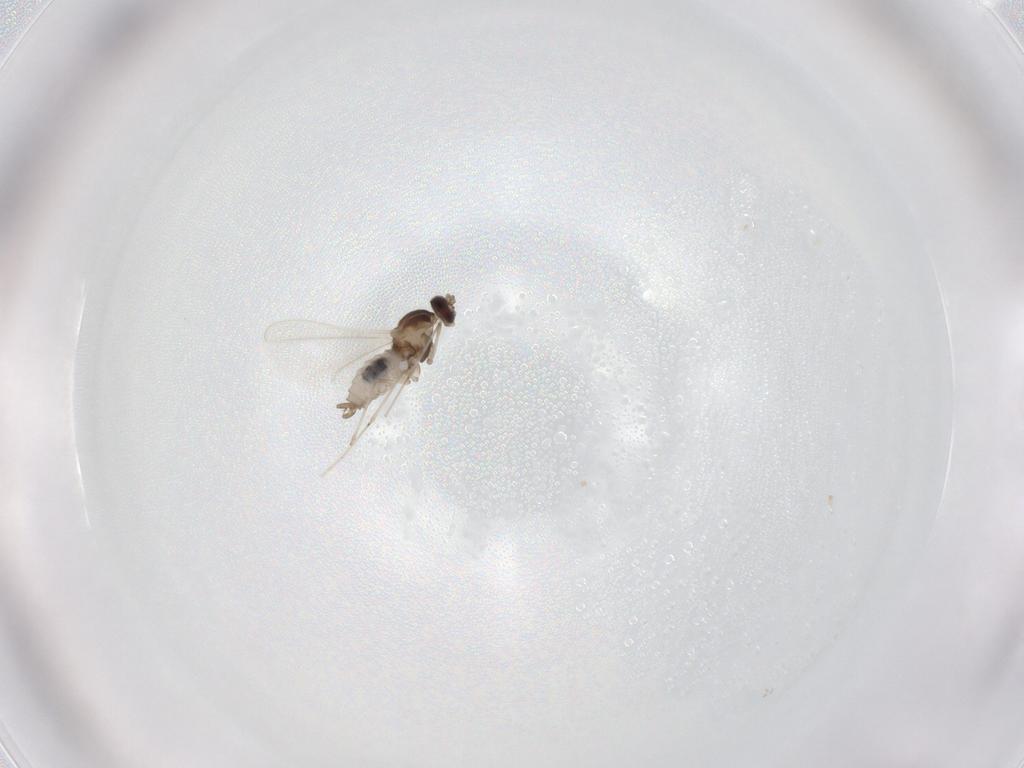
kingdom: Animalia
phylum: Arthropoda
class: Insecta
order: Diptera
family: Cecidomyiidae
